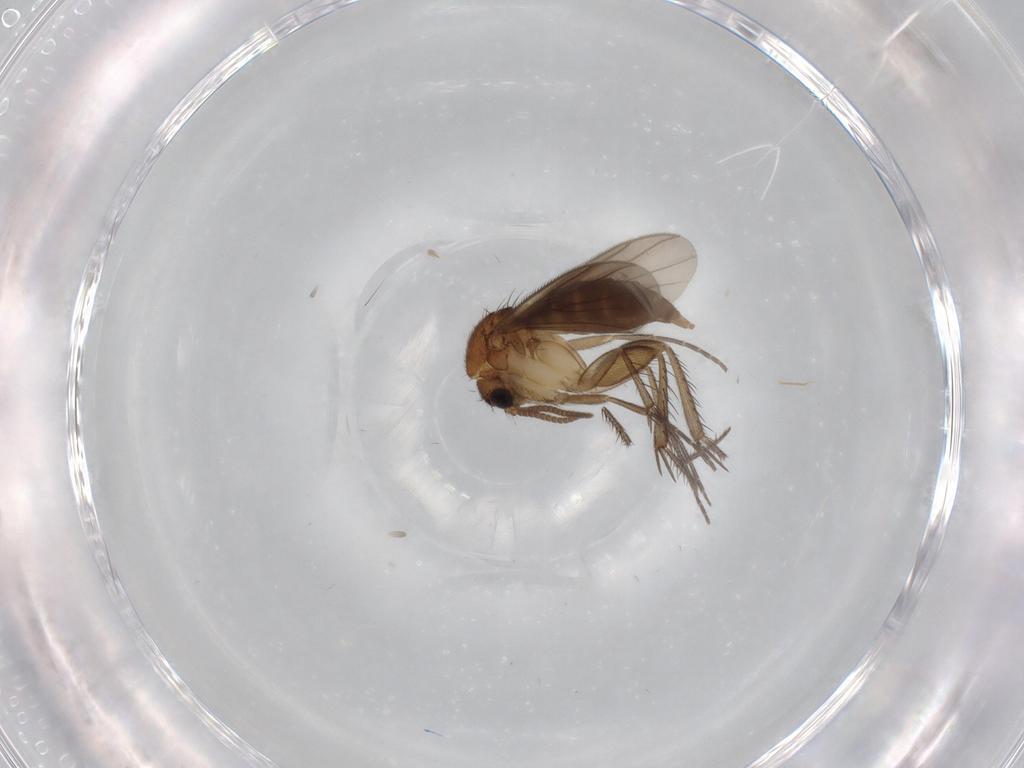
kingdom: Animalia
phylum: Arthropoda
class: Insecta
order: Diptera
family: Mycetophilidae
